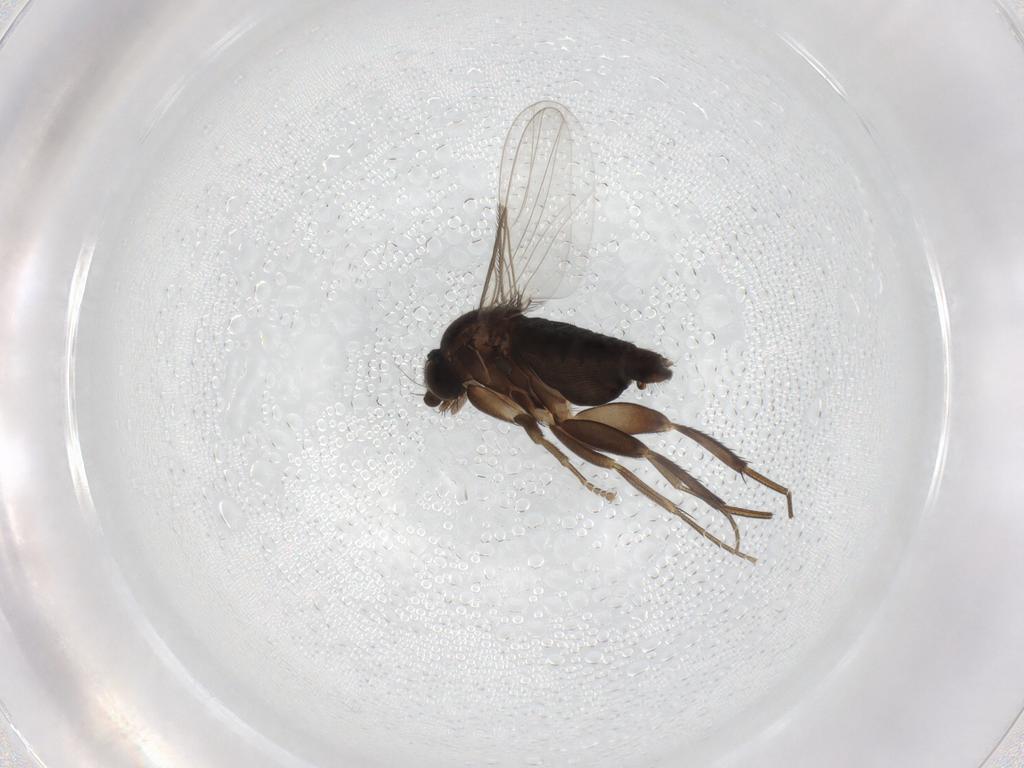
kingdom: Animalia
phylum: Arthropoda
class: Insecta
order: Diptera
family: Phoridae
